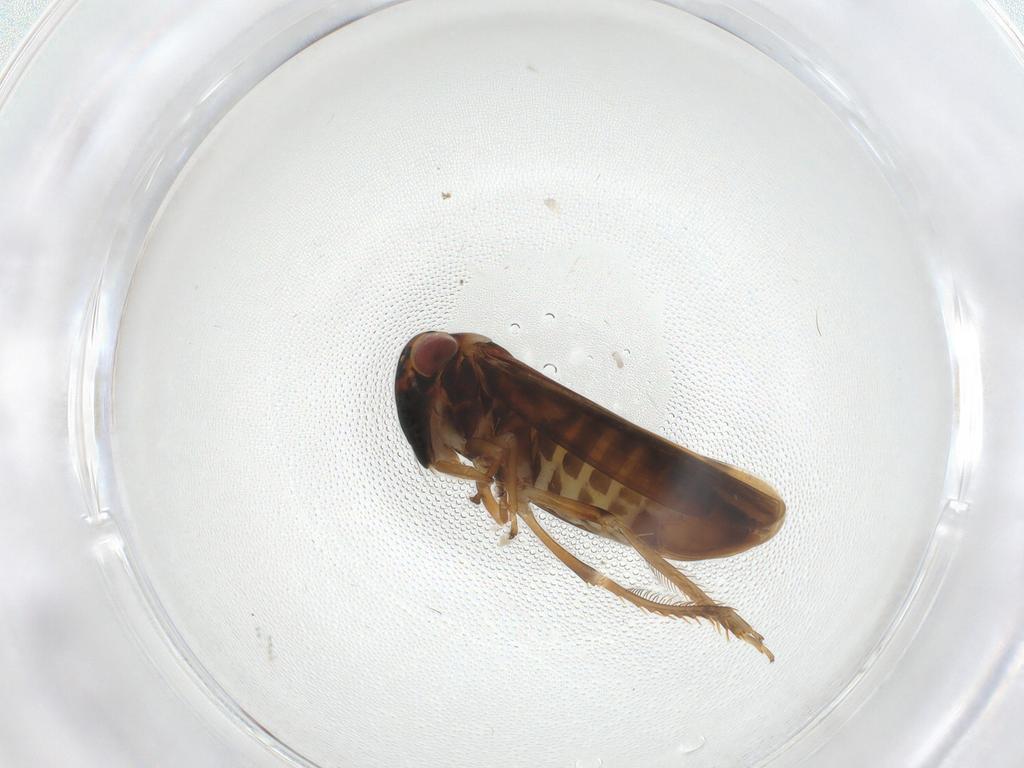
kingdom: Animalia
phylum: Arthropoda
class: Insecta
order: Hemiptera
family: Cicadellidae
